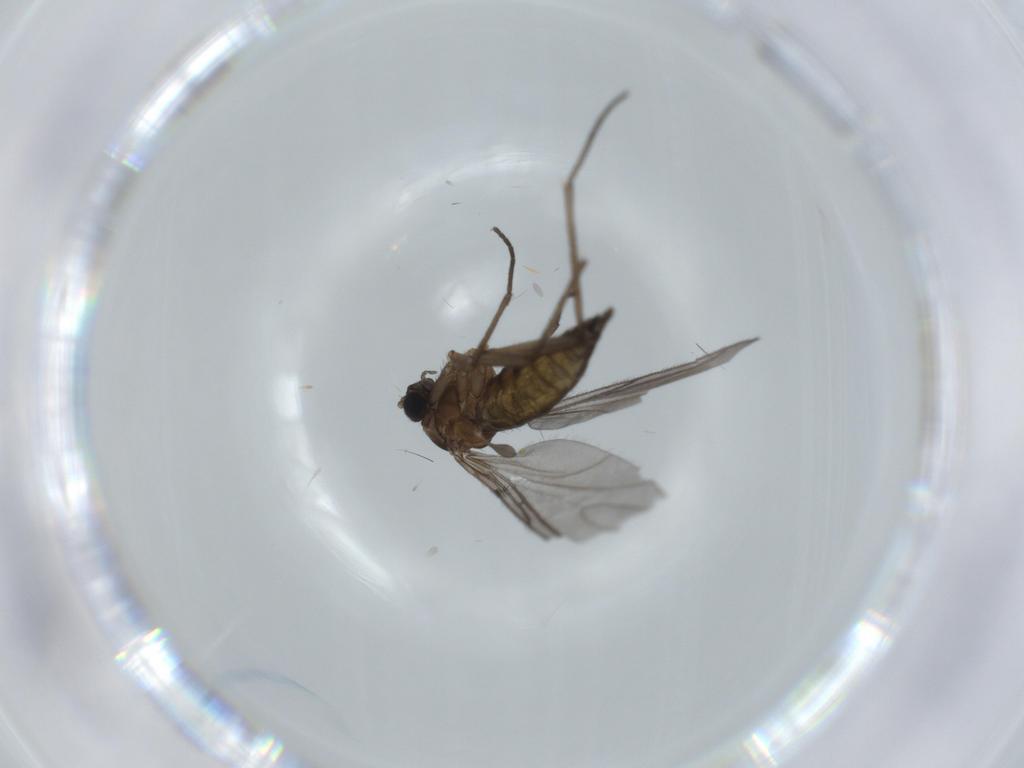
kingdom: Animalia
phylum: Arthropoda
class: Insecta
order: Diptera
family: Sciaridae
